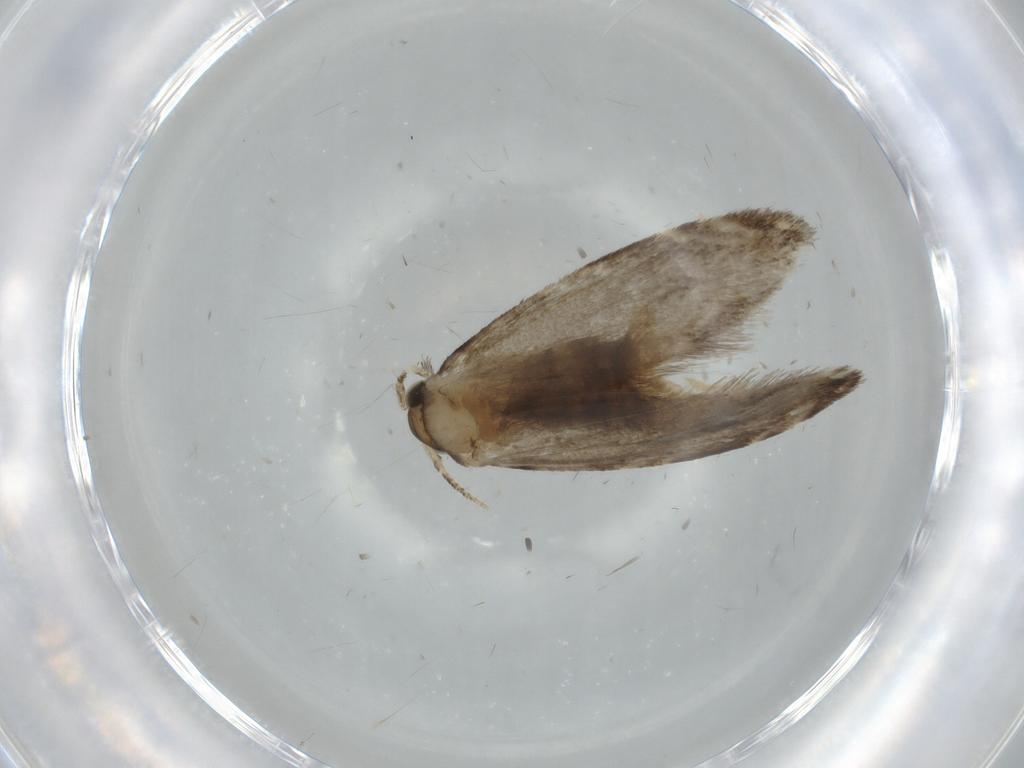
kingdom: Animalia
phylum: Arthropoda
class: Insecta
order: Lepidoptera
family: Tineidae
